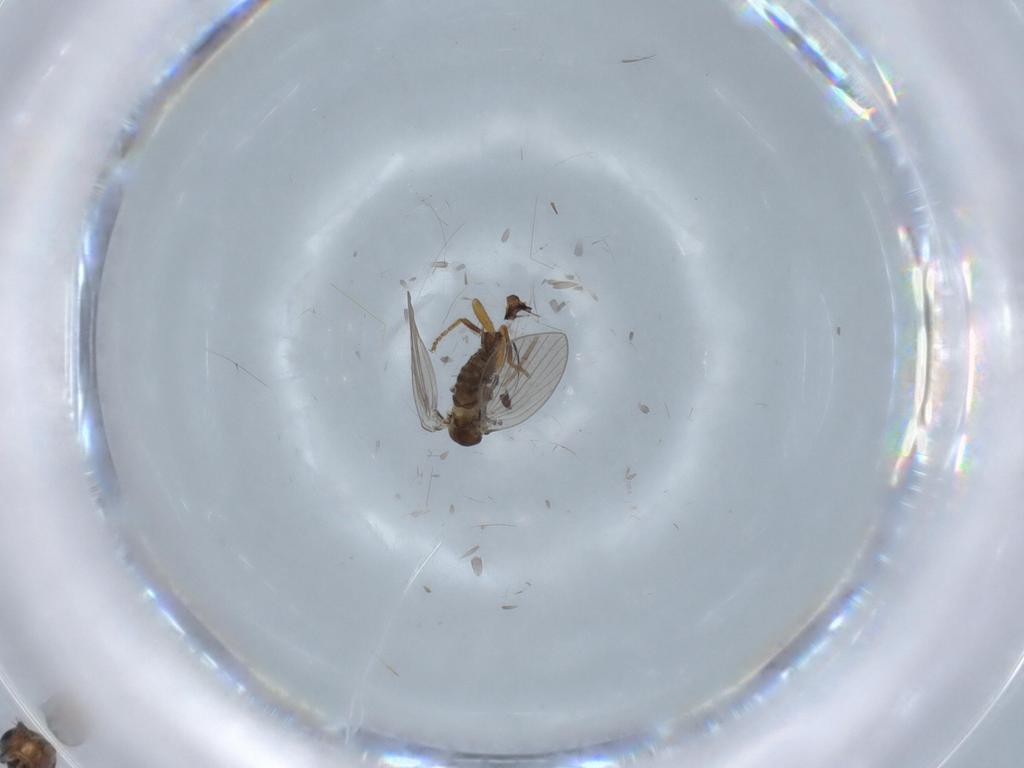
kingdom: Animalia
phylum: Arthropoda
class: Insecta
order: Diptera
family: Sphaeroceridae
